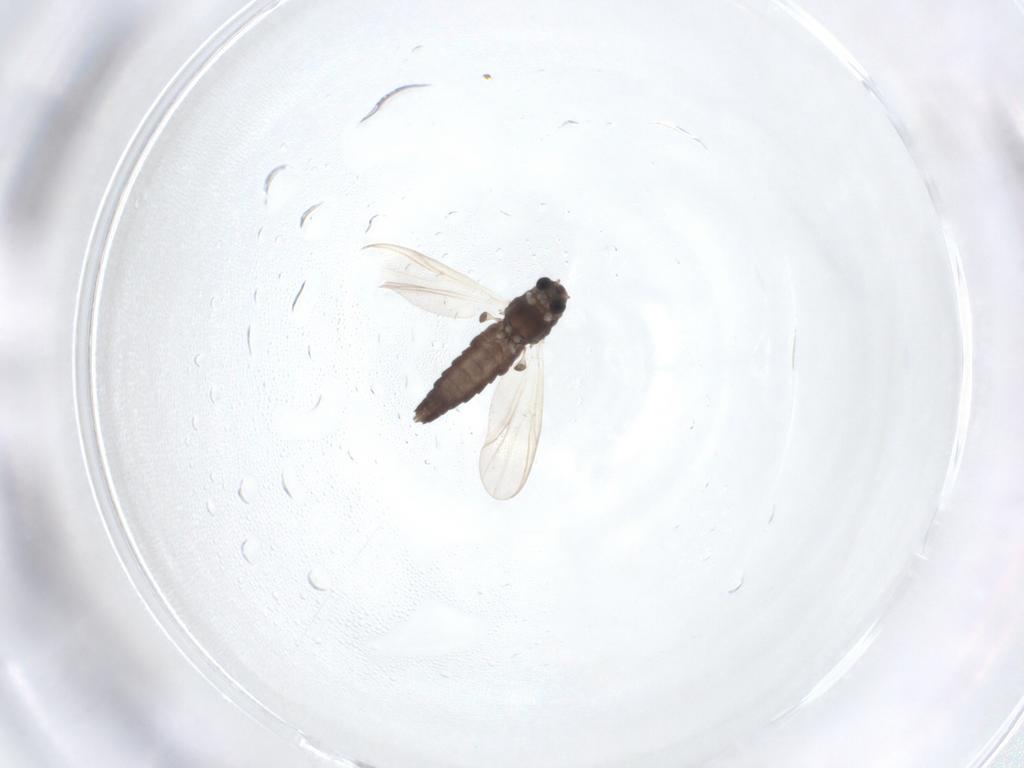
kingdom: Animalia
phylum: Arthropoda
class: Insecta
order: Diptera
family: Chironomidae
